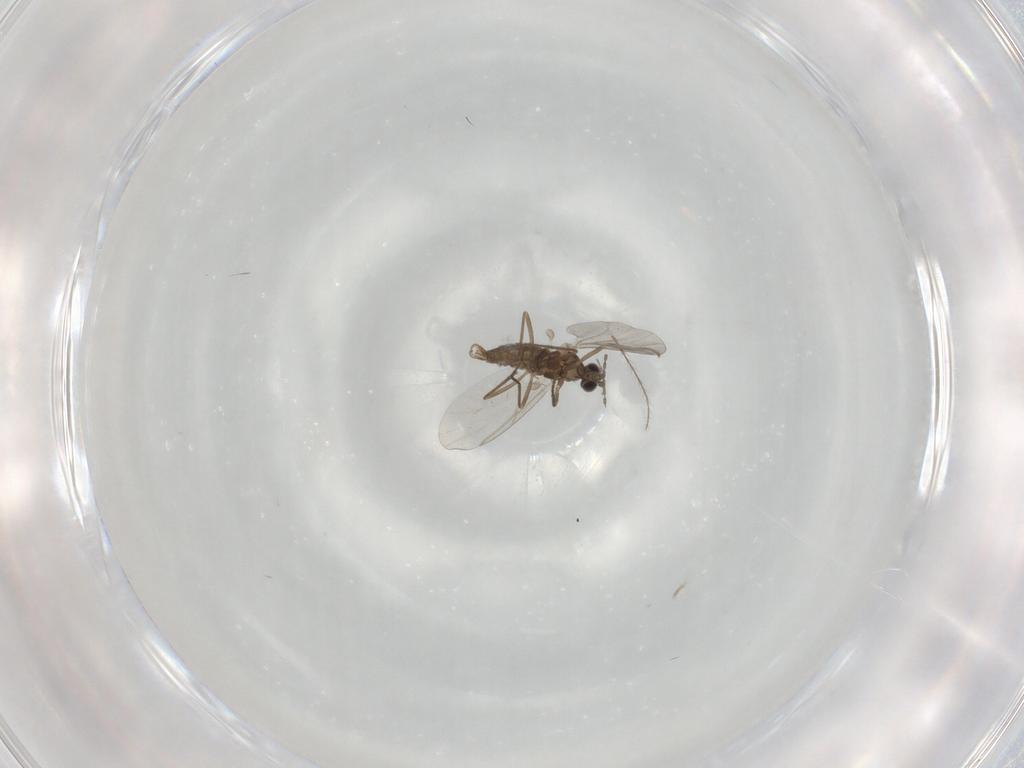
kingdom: Animalia
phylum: Arthropoda
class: Insecta
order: Diptera
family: Cecidomyiidae
